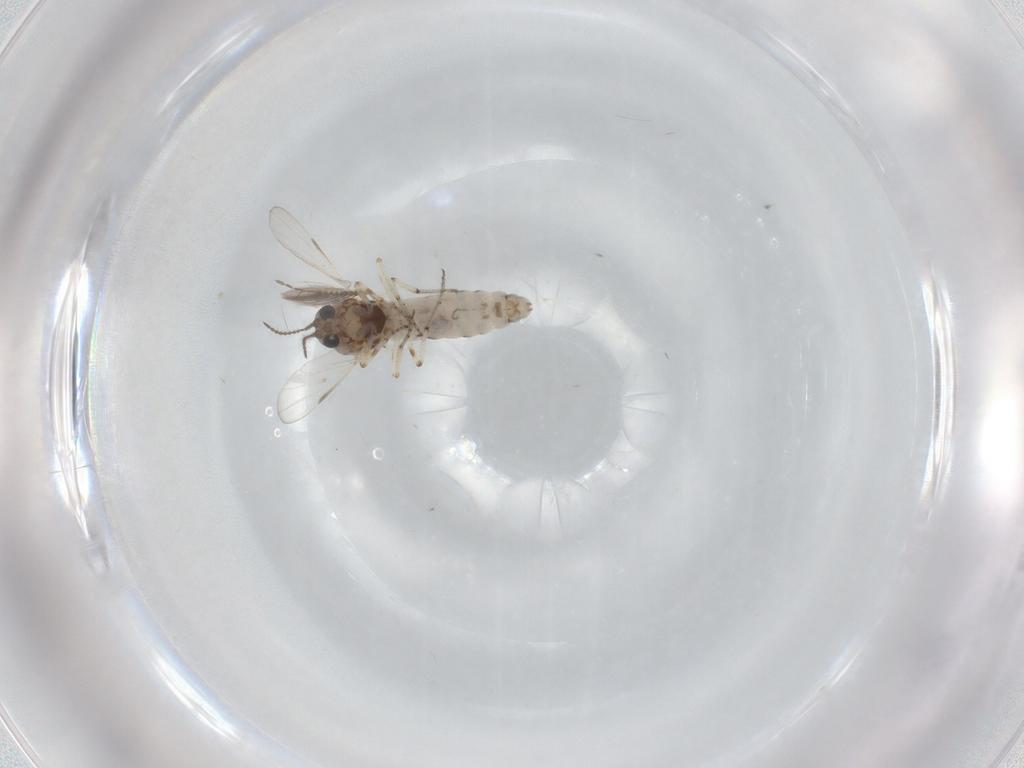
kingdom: Animalia
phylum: Arthropoda
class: Insecta
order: Diptera
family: Ceratopogonidae
